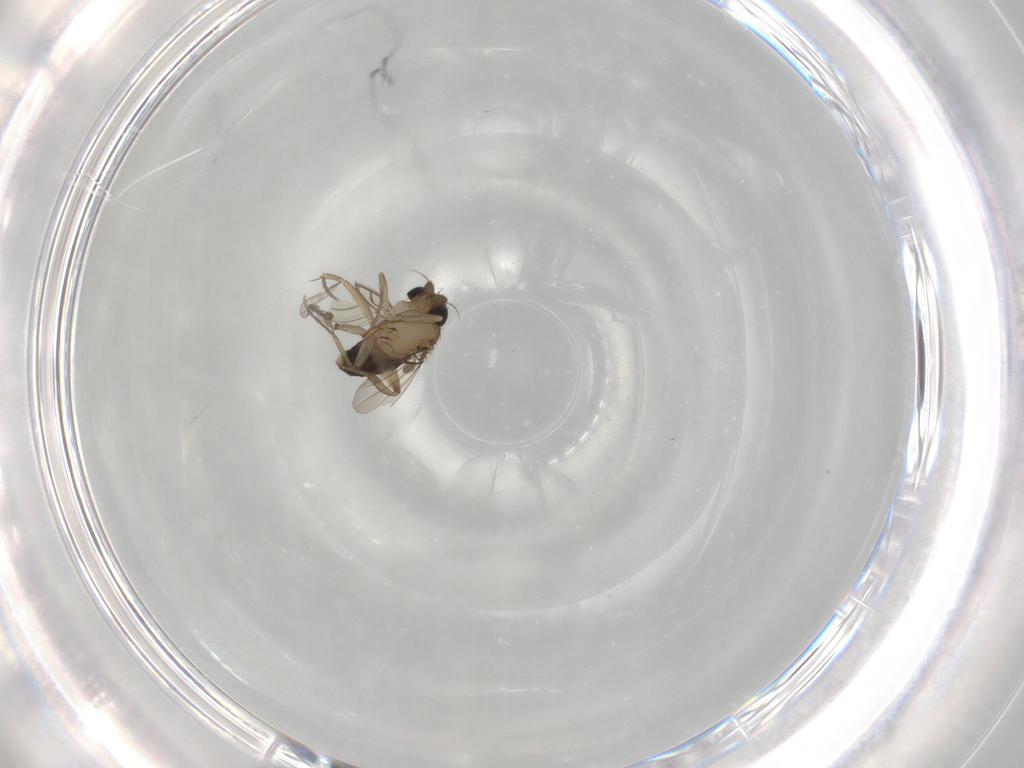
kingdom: Animalia
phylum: Arthropoda
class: Insecta
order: Diptera
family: Phoridae
